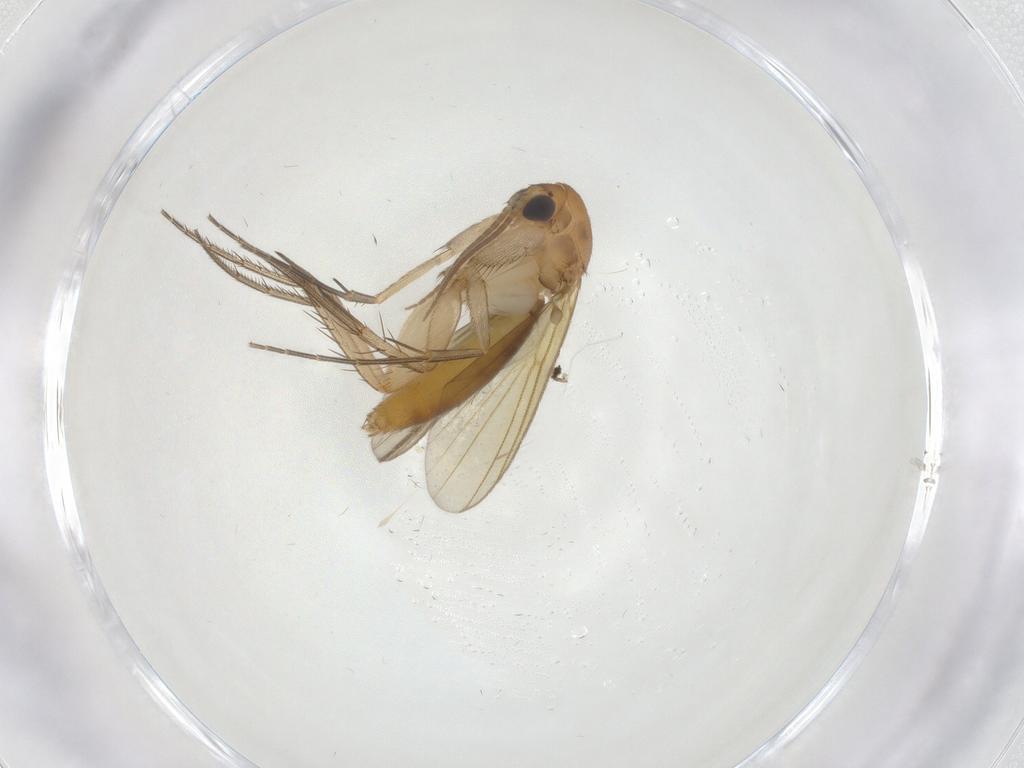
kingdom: Animalia
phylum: Arthropoda
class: Insecta
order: Diptera
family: Mycetophilidae
